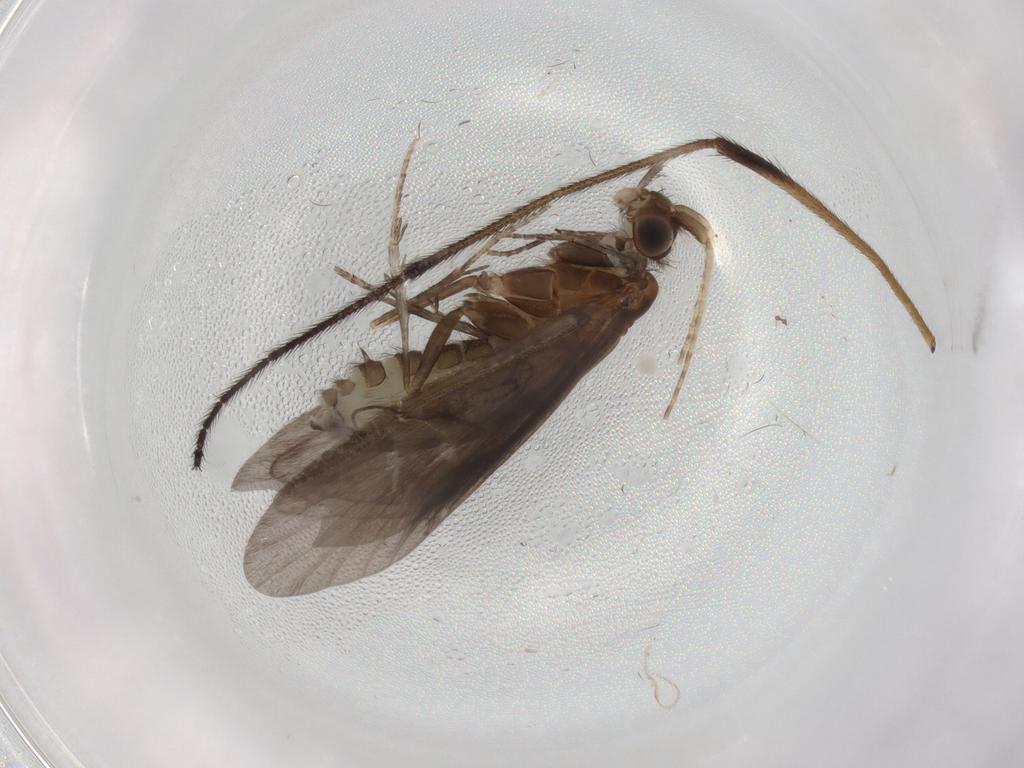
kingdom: Animalia
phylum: Arthropoda
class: Insecta
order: Trichoptera
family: Helicopsychidae
